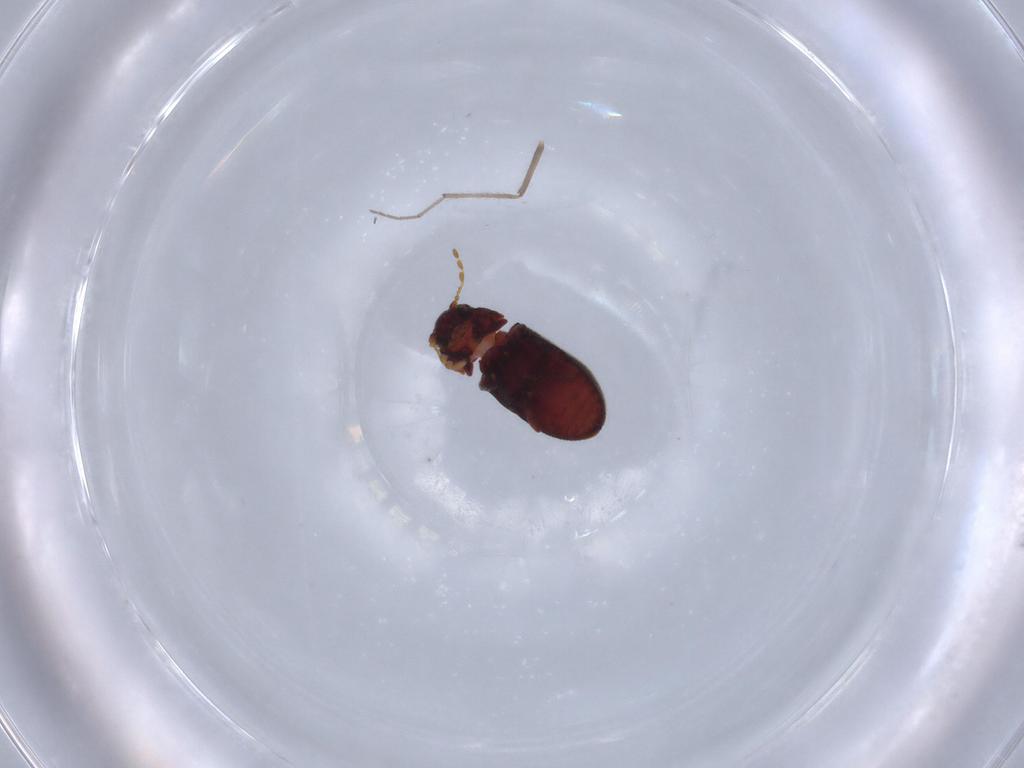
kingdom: Animalia
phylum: Arthropoda
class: Insecta
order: Coleoptera
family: Anobiidae
